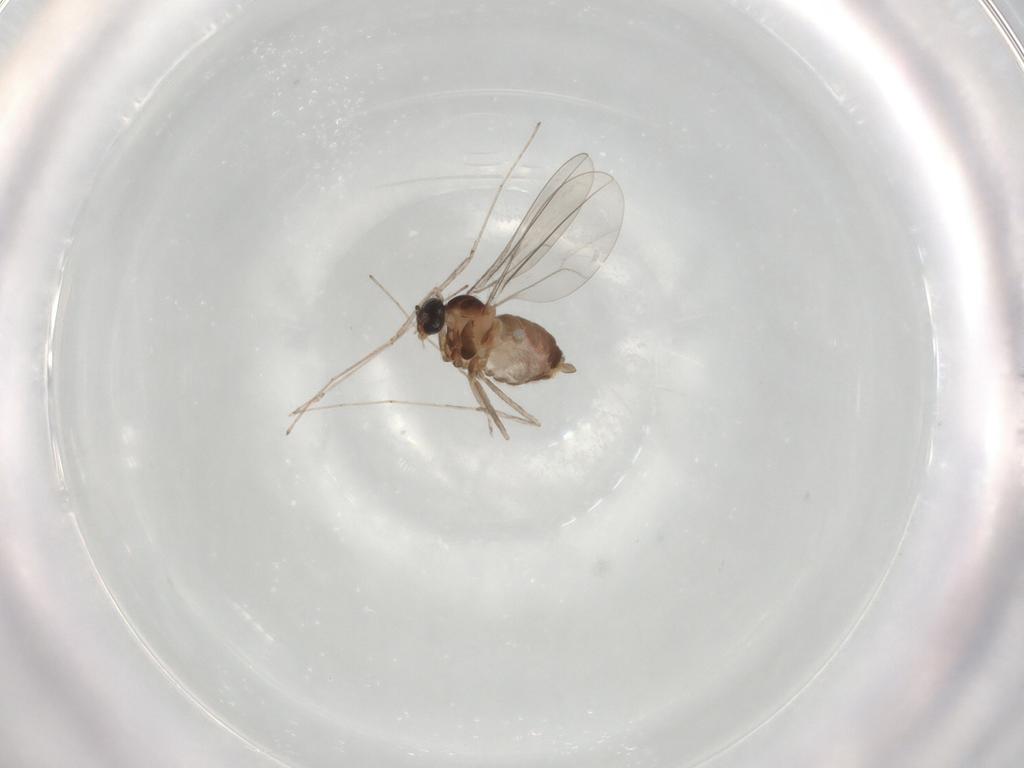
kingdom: Animalia
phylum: Arthropoda
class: Insecta
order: Diptera
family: Cecidomyiidae
